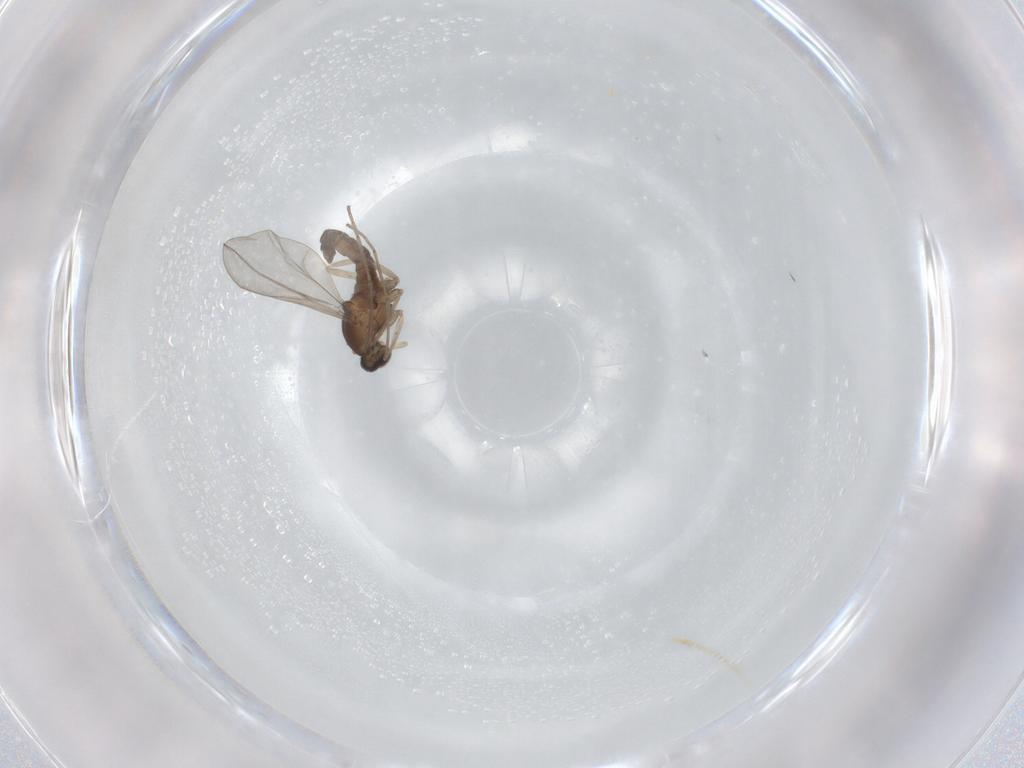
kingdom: Animalia
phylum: Arthropoda
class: Insecta
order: Diptera
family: Cecidomyiidae
